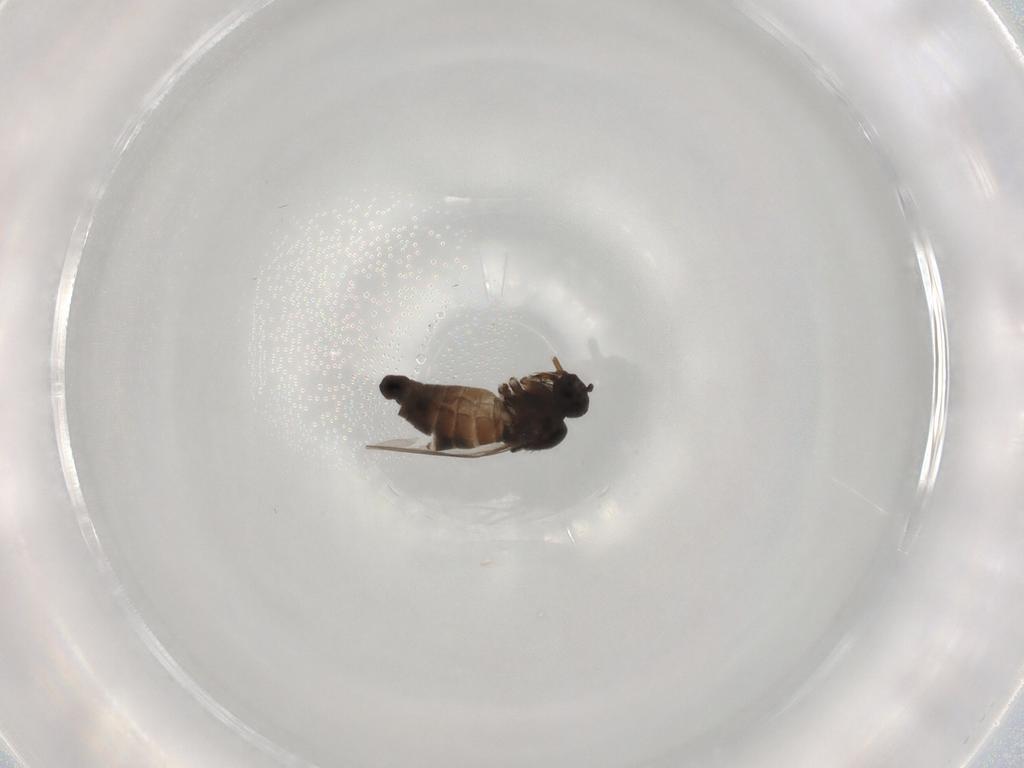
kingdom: Animalia
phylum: Arthropoda
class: Insecta
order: Diptera
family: Hybotidae
